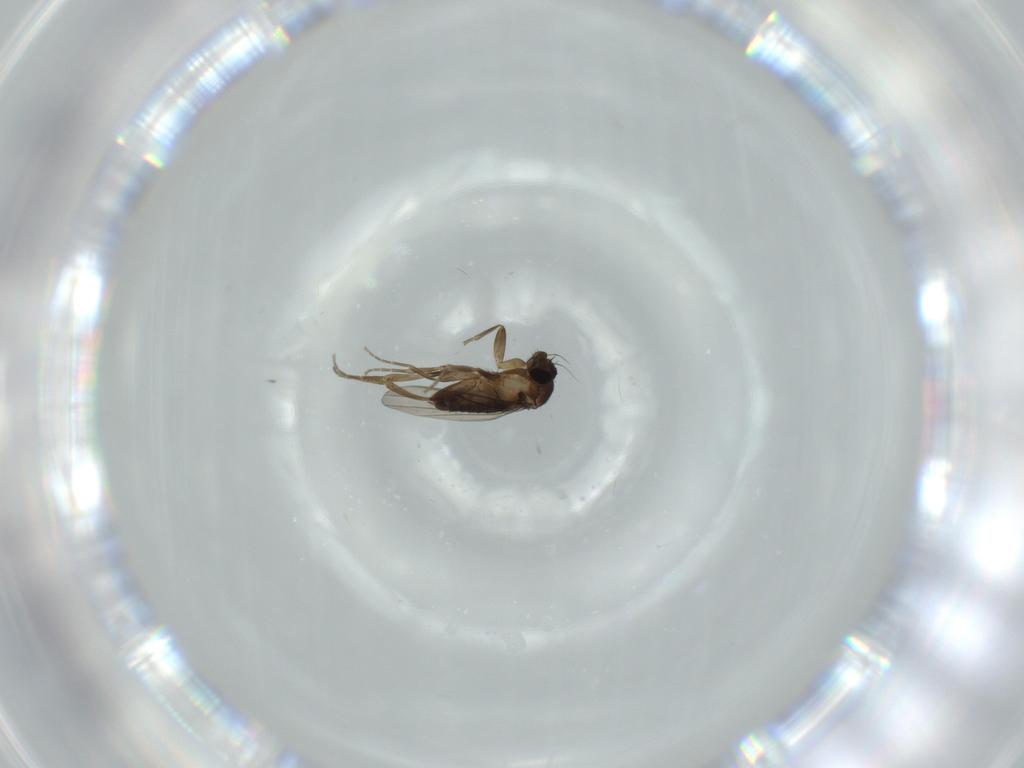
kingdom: Animalia
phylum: Arthropoda
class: Insecta
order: Diptera
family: Phoridae
